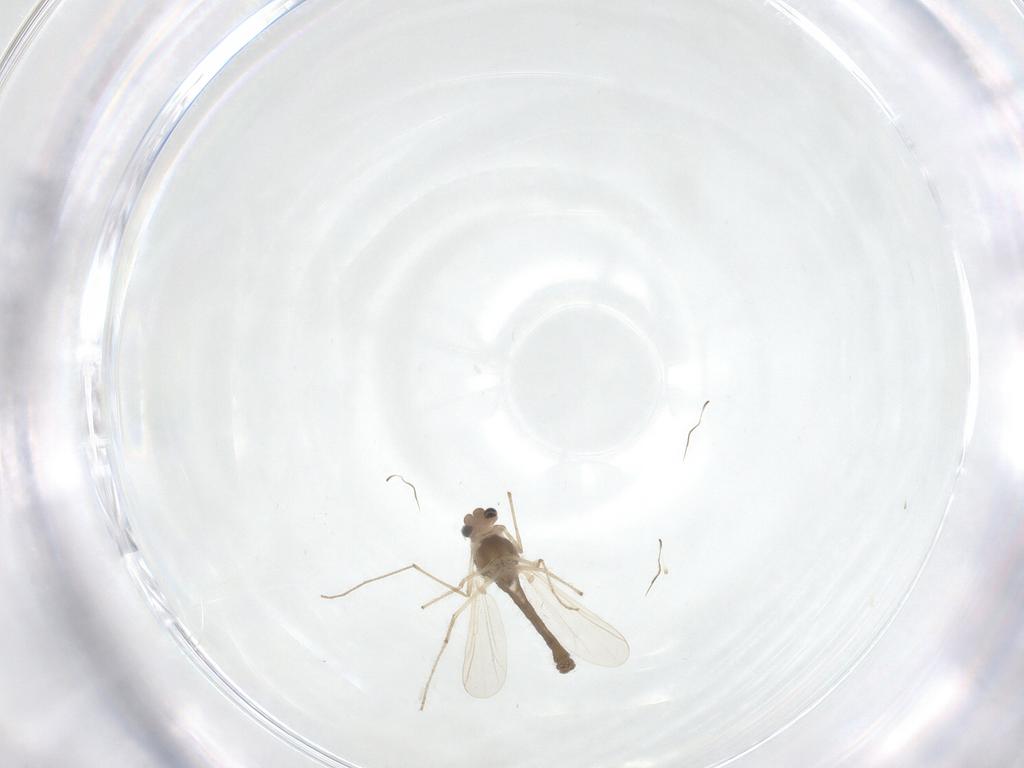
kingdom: Animalia
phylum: Arthropoda
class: Insecta
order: Diptera
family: Chironomidae
